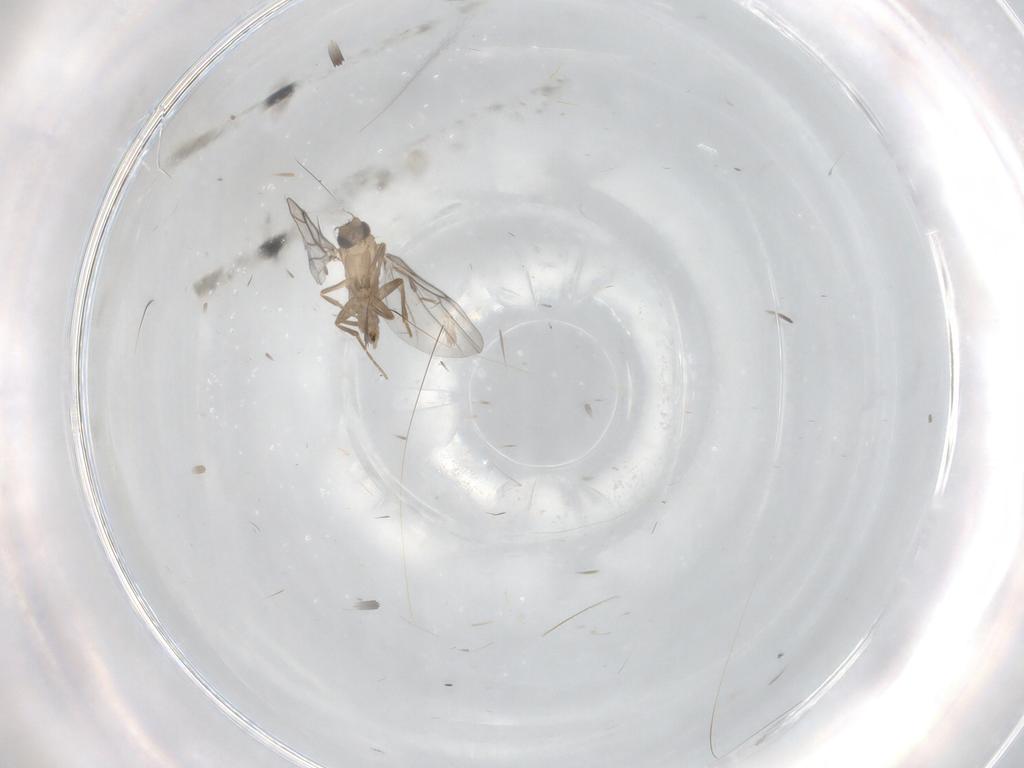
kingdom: Animalia
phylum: Arthropoda
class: Insecta
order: Diptera
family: Cecidomyiidae
